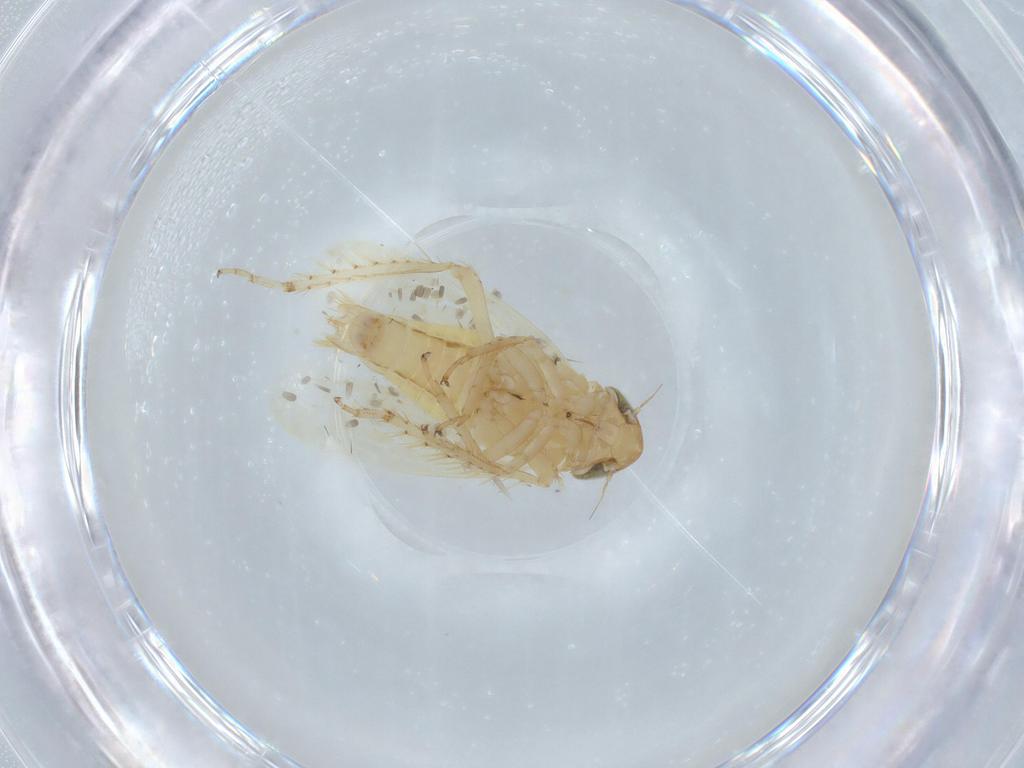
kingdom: Animalia
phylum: Arthropoda
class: Insecta
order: Hemiptera
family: Cicadellidae
